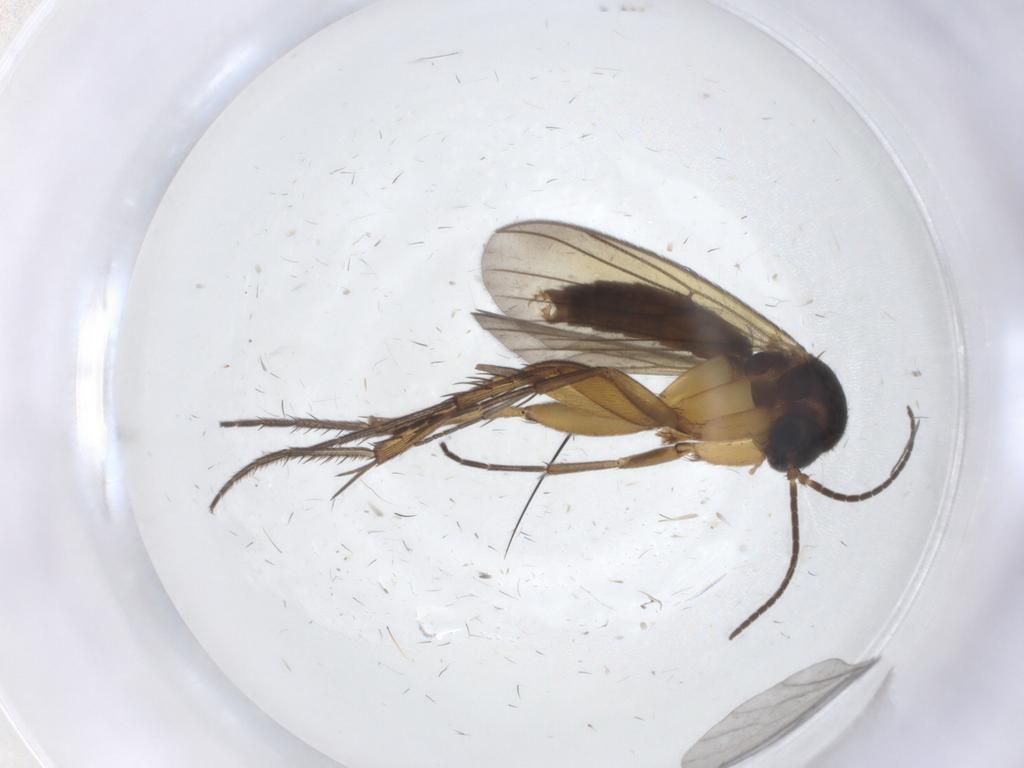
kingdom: Animalia
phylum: Arthropoda
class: Insecta
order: Diptera
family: Mycetophilidae
